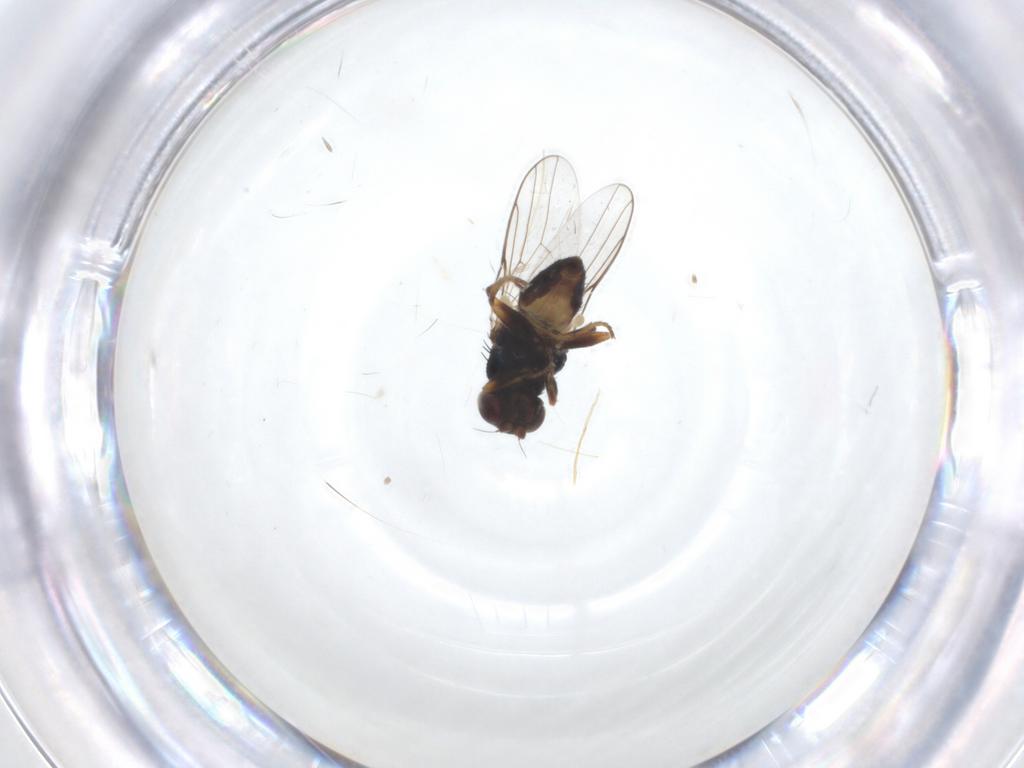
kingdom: Animalia
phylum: Arthropoda
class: Insecta
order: Diptera
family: Chloropidae
